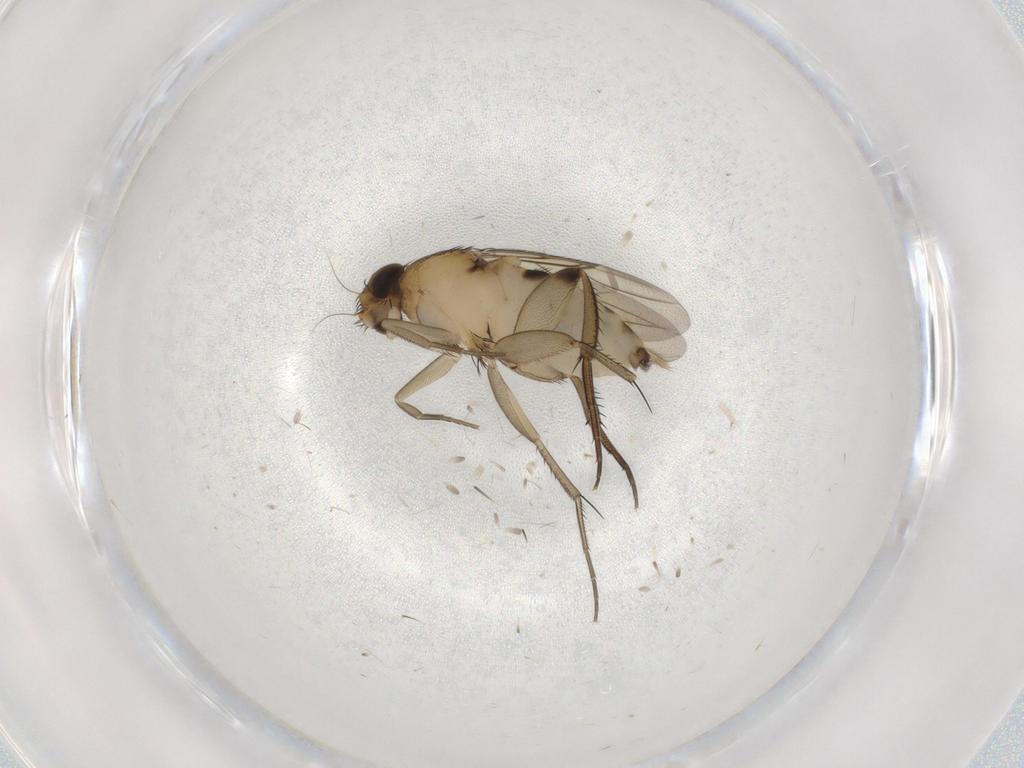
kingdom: Animalia
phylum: Arthropoda
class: Insecta
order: Diptera
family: Phoridae
